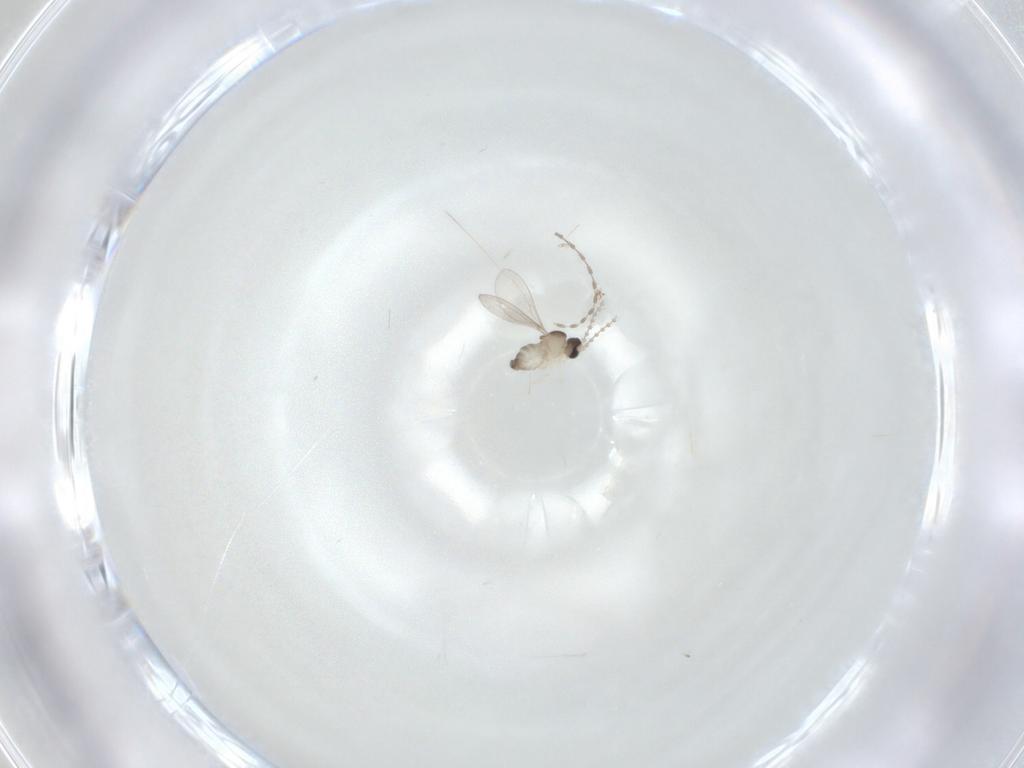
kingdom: Animalia
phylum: Arthropoda
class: Insecta
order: Diptera
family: Cecidomyiidae
